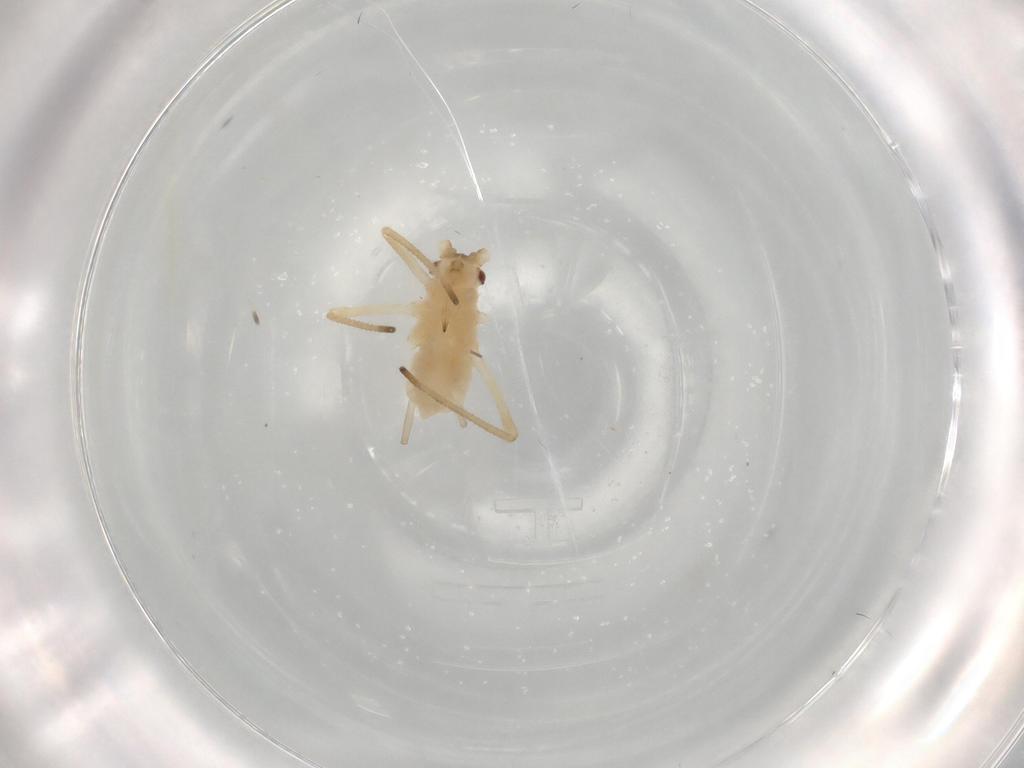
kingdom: Animalia
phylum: Arthropoda
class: Insecta
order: Hemiptera
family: Aphididae
